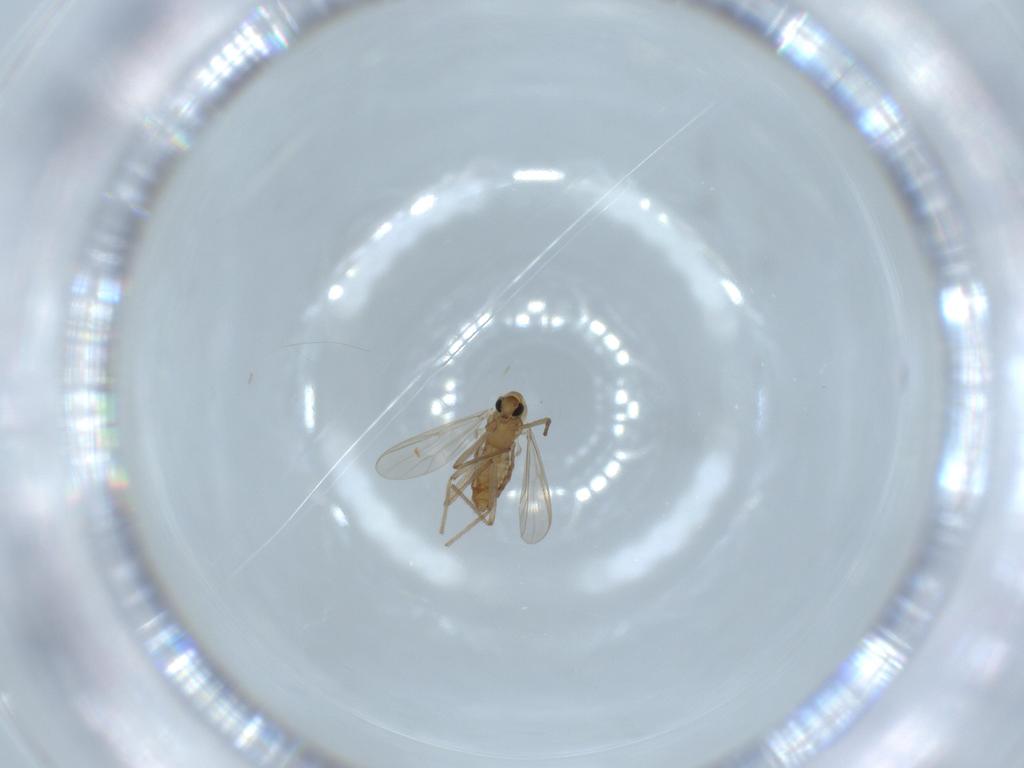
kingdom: Animalia
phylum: Arthropoda
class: Insecta
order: Diptera
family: Chironomidae
